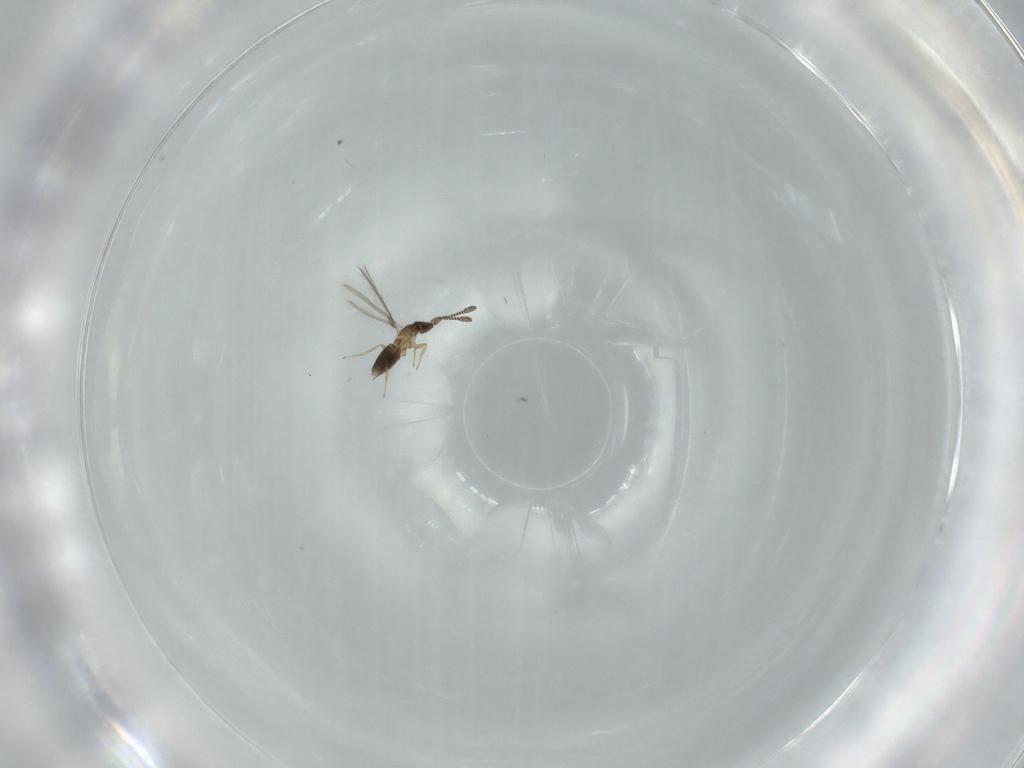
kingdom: Animalia
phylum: Arthropoda
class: Insecta
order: Hymenoptera
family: Mymaridae
